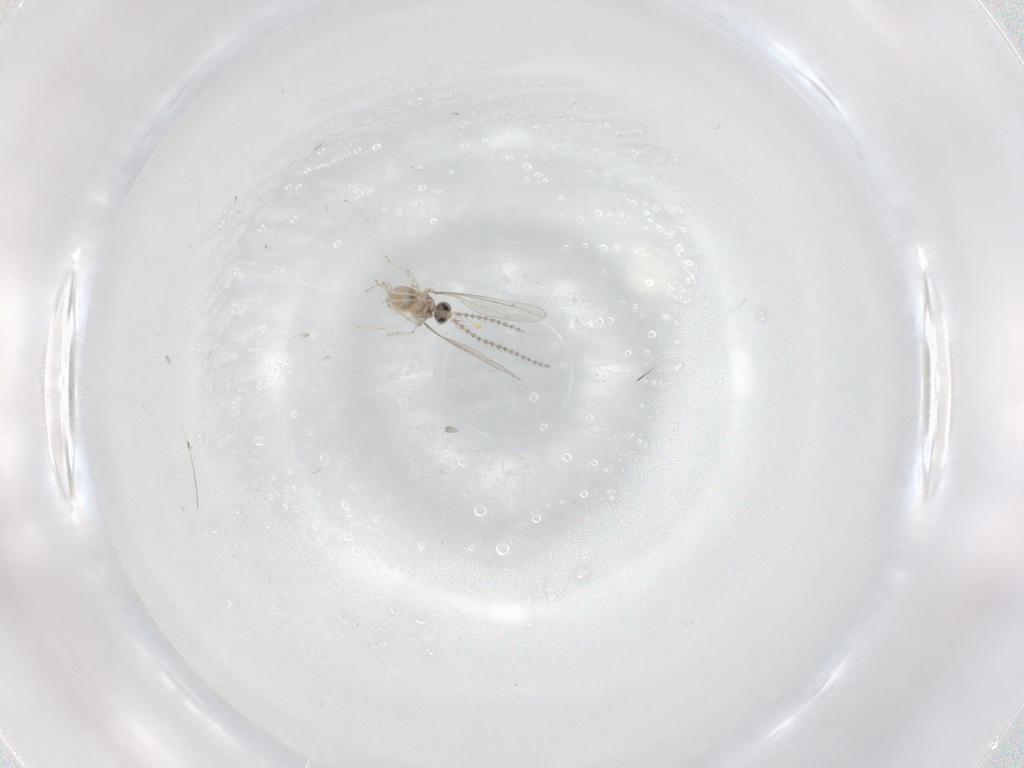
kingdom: Animalia
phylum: Arthropoda
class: Insecta
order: Diptera
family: Cecidomyiidae
